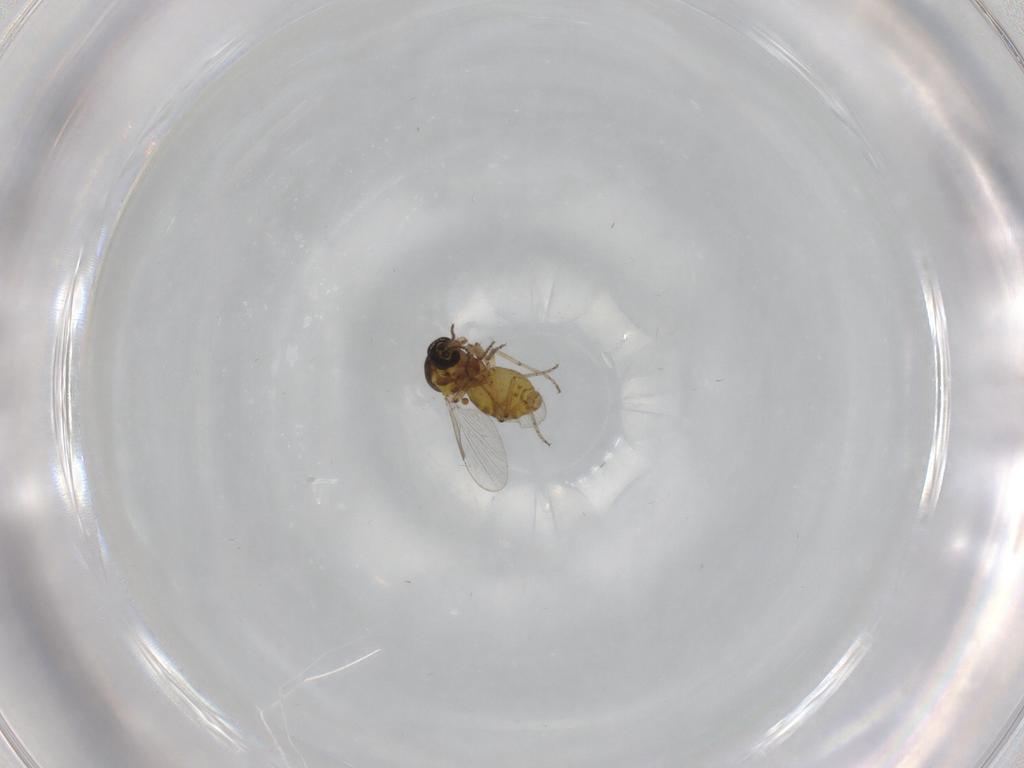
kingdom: Animalia
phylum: Arthropoda
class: Insecta
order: Diptera
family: Ceratopogonidae
